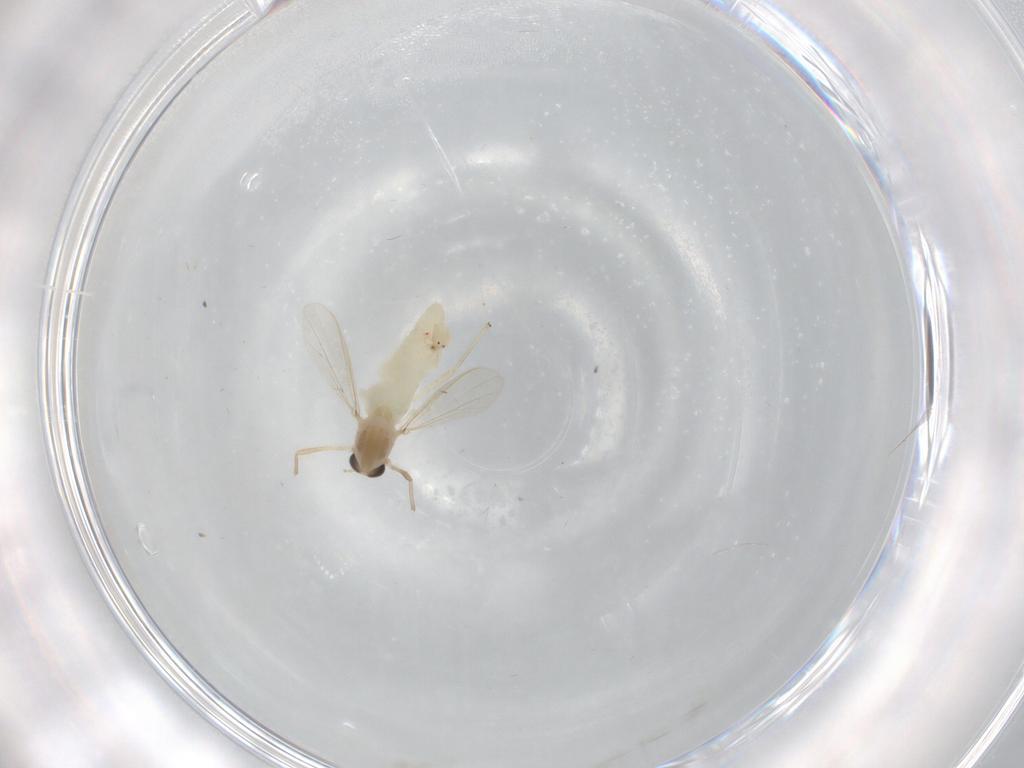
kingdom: Animalia
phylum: Arthropoda
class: Insecta
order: Diptera
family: Chironomidae
